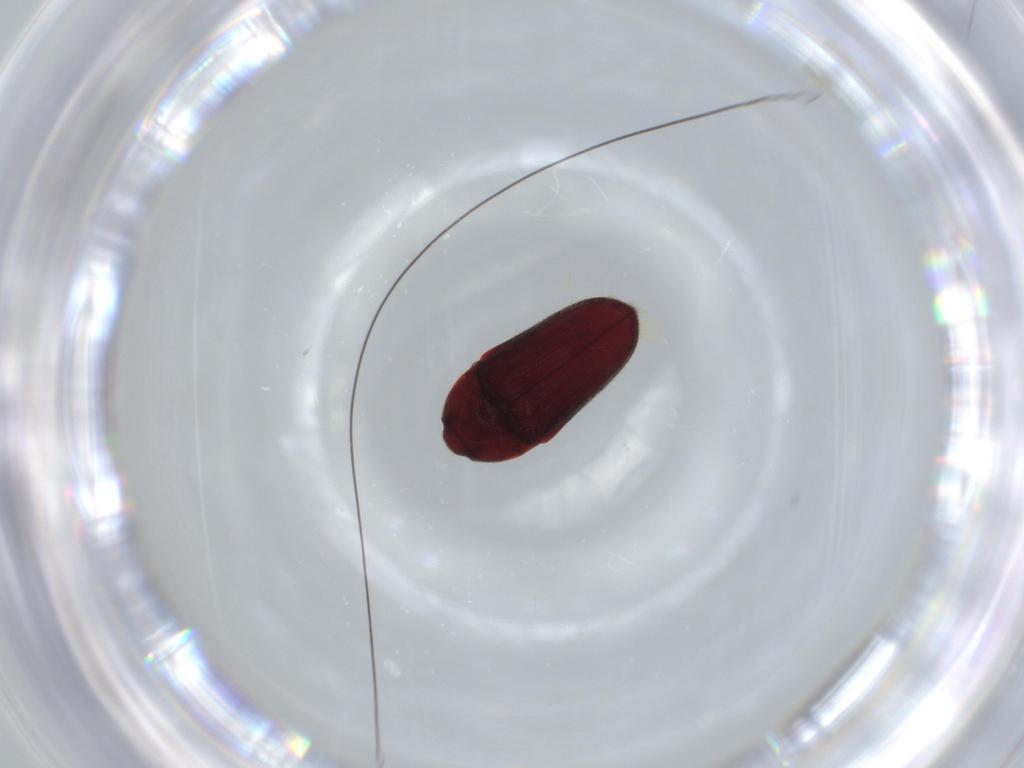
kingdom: Animalia
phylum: Arthropoda
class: Insecta
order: Coleoptera
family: Throscidae
